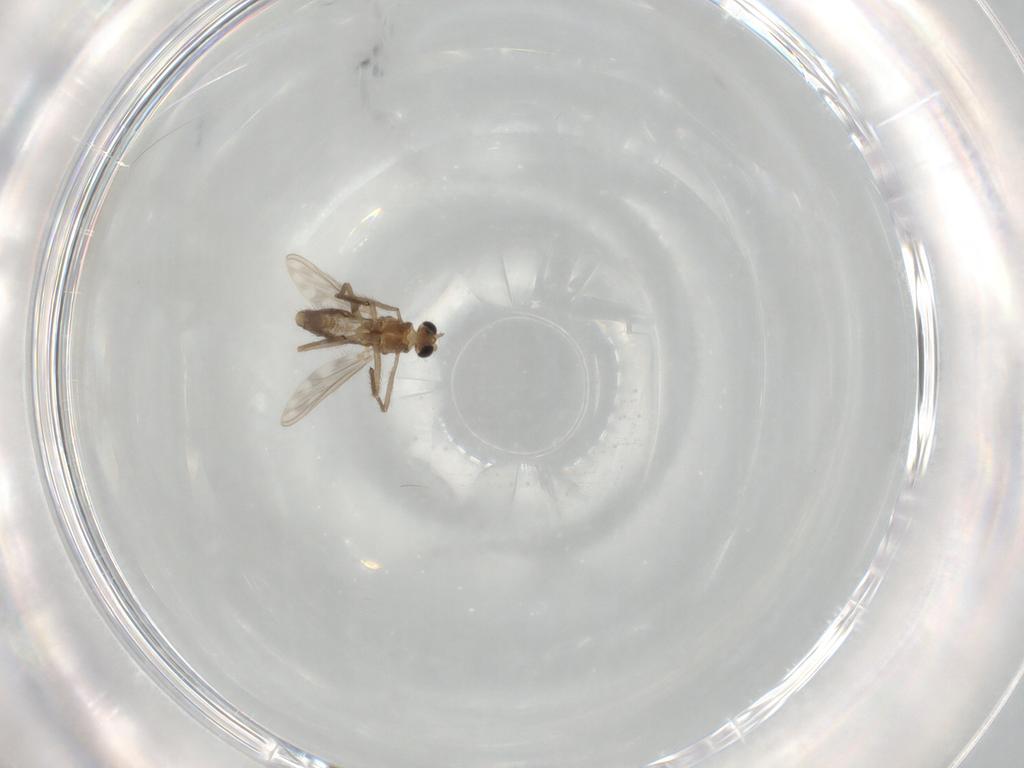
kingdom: Animalia
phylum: Arthropoda
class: Insecta
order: Diptera
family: Chironomidae
